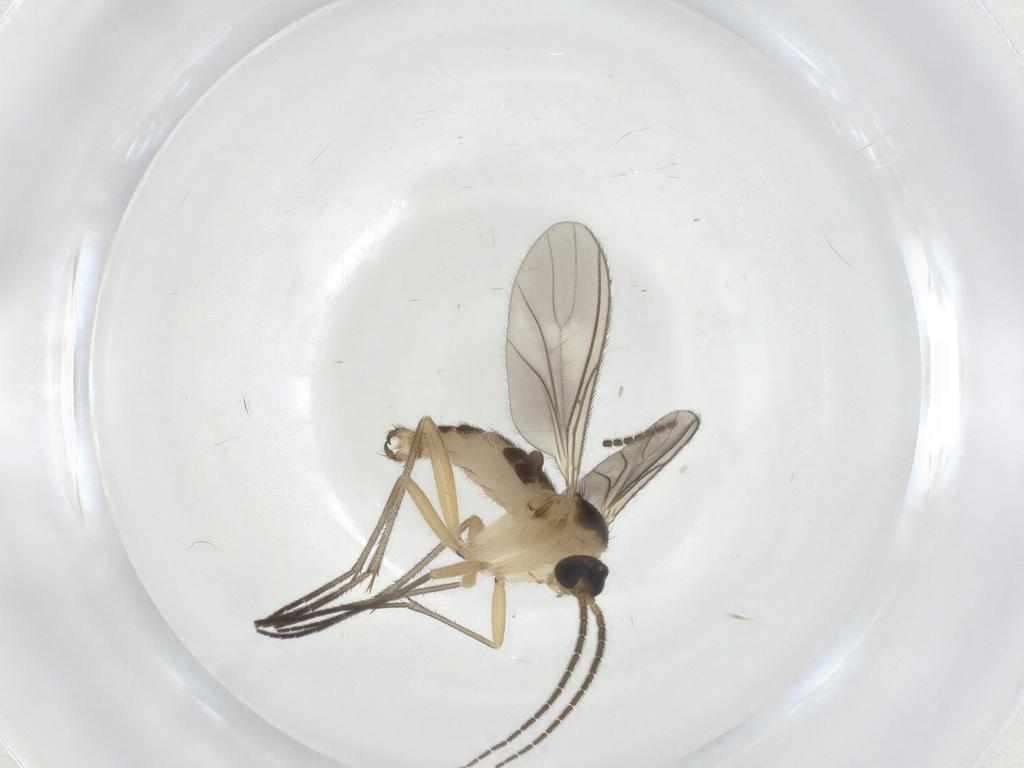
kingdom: Animalia
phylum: Arthropoda
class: Insecta
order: Diptera
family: Sciaridae
